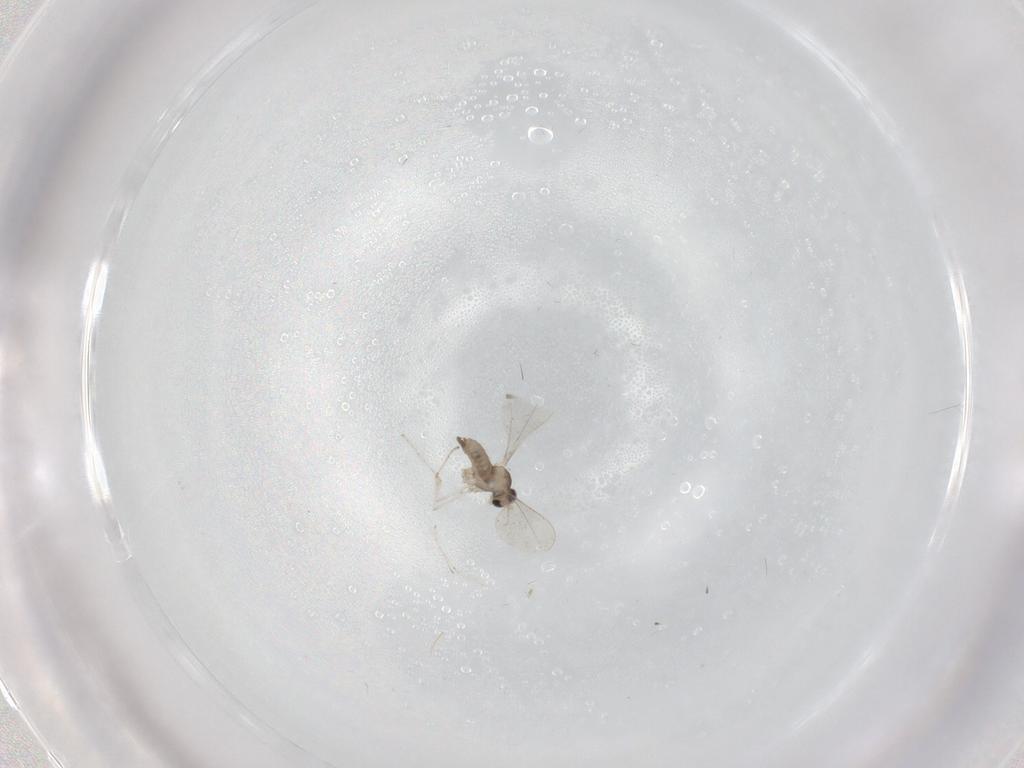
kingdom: Animalia
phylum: Arthropoda
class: Insecta
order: Diptera
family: Cecidomyiidae
